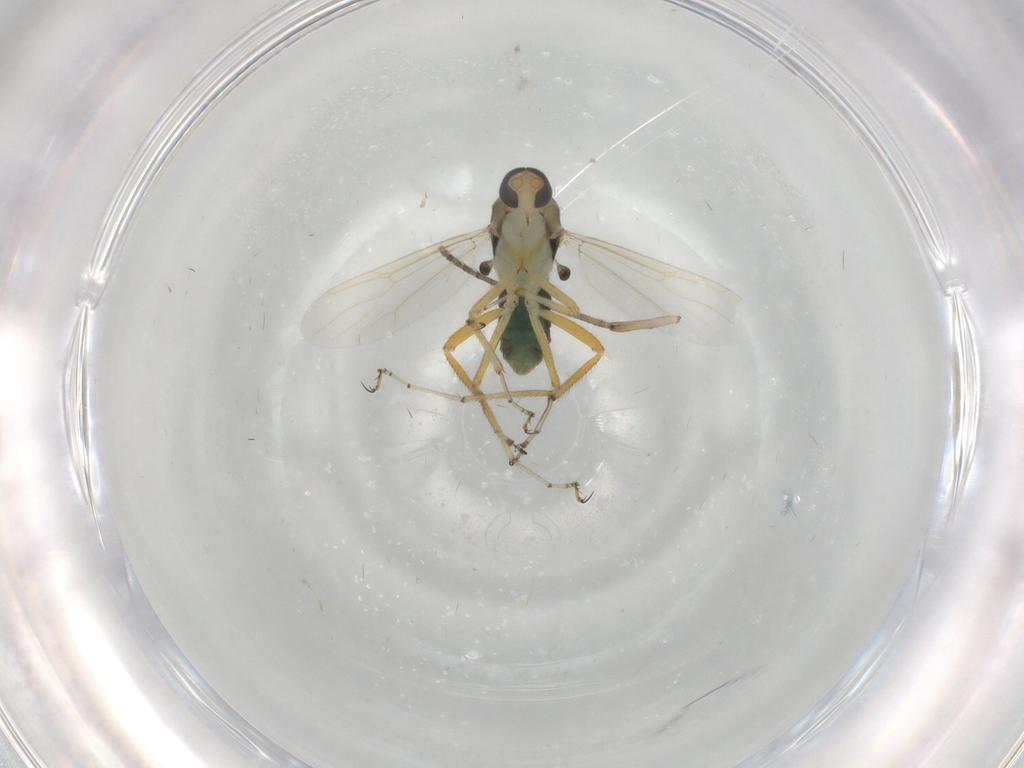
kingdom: Animalia
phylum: Arthropoda
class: Insecta
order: Diptera
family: Ceratopogonidae
